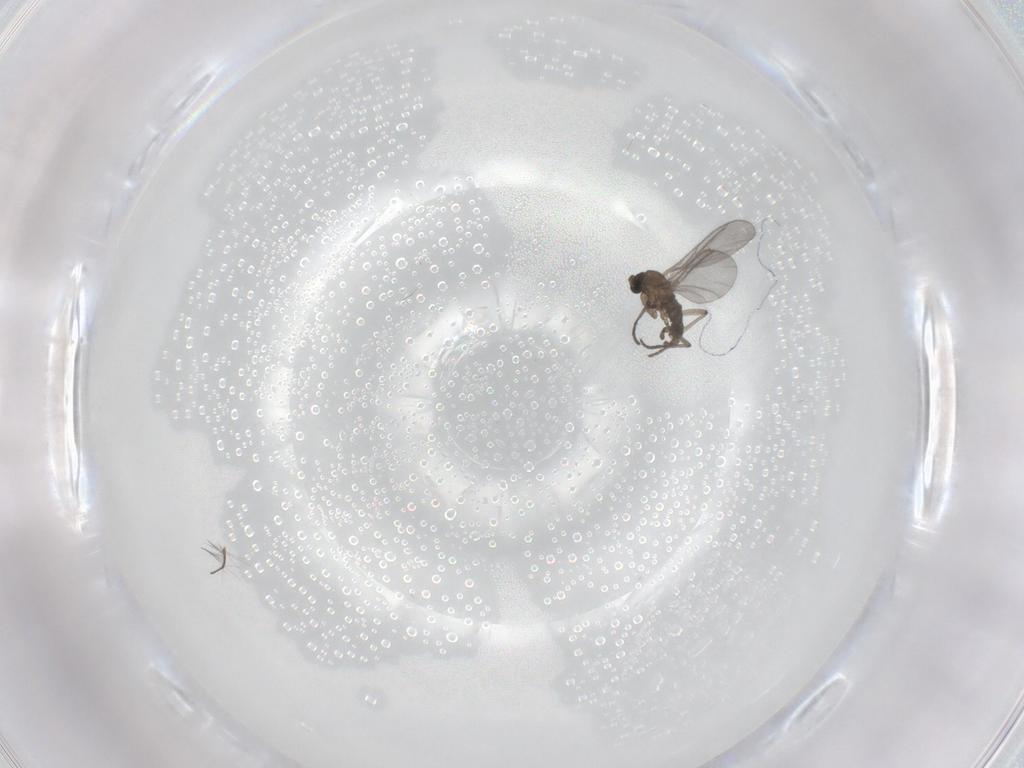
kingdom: Animalia
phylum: Arthropoda
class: Insecta
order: Diptera
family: Sciaridae
